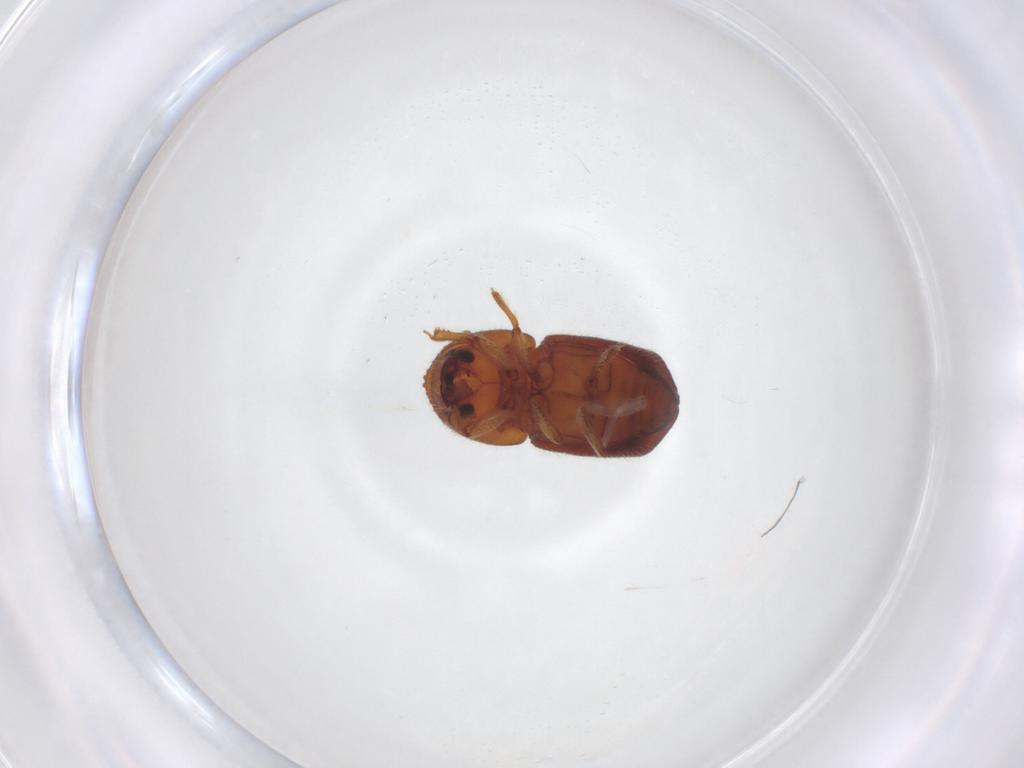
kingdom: Animalia
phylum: Arthropoda
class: Insecta
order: Coleoptera
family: Curculionidae
